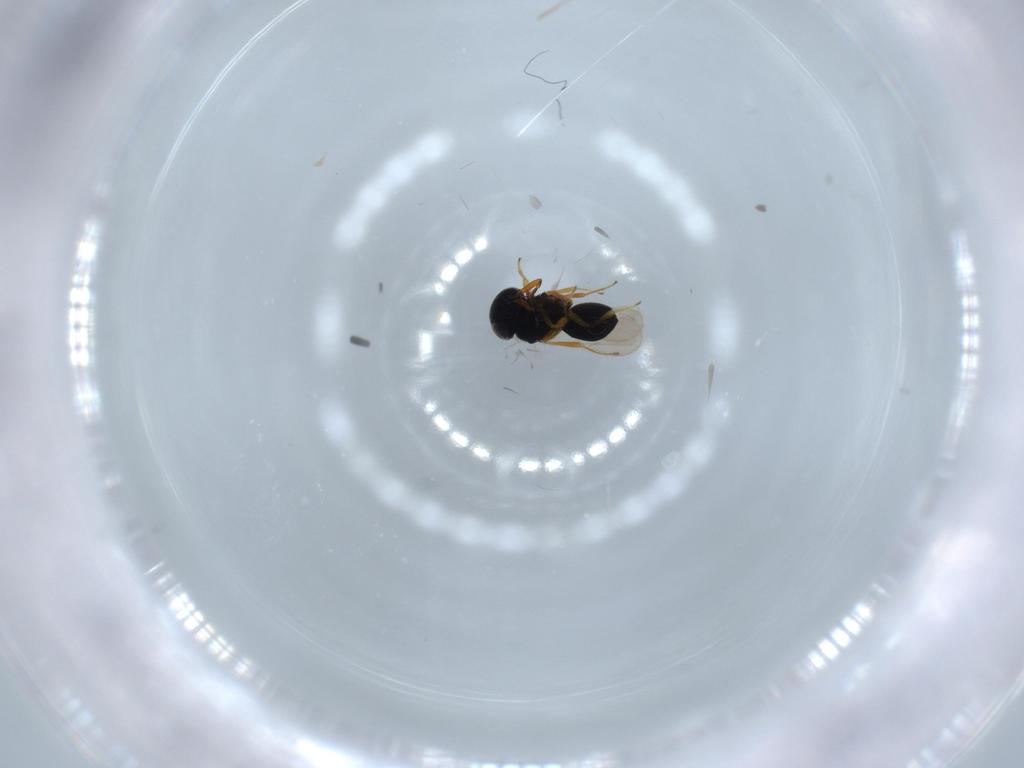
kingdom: Animalia
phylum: Arthropoda
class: Insecta
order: Hymenoptera
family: Scelionidae
